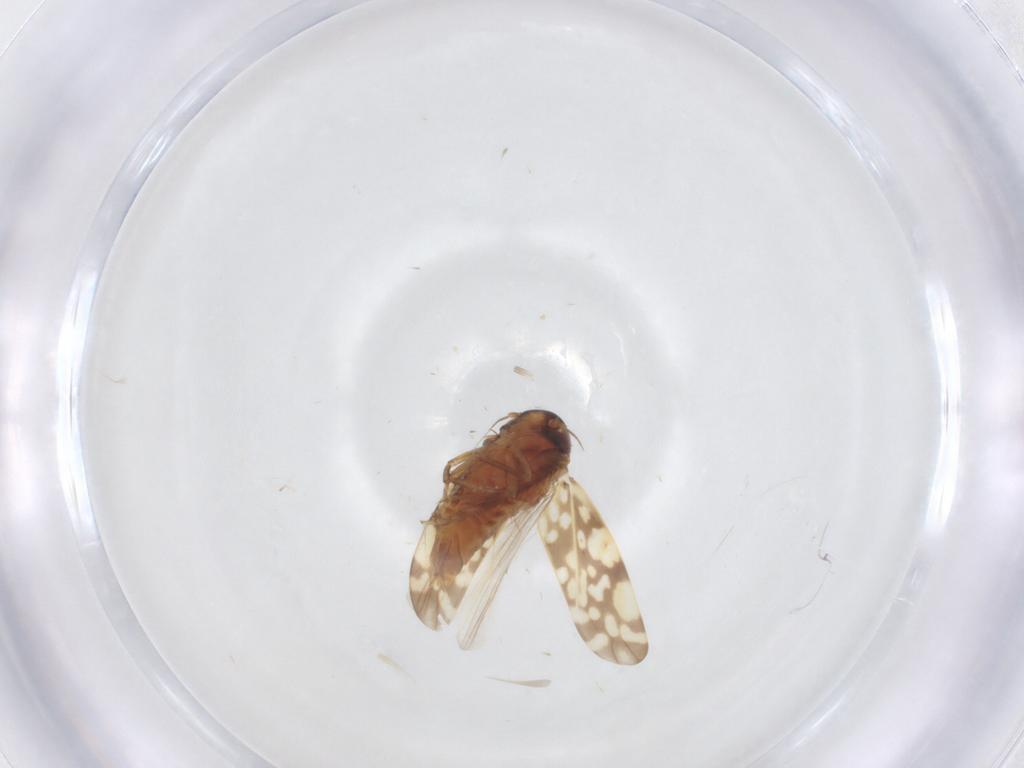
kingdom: Animalia
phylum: Arthropoda
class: Insecta
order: Hemiptera
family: Cicadellidae
